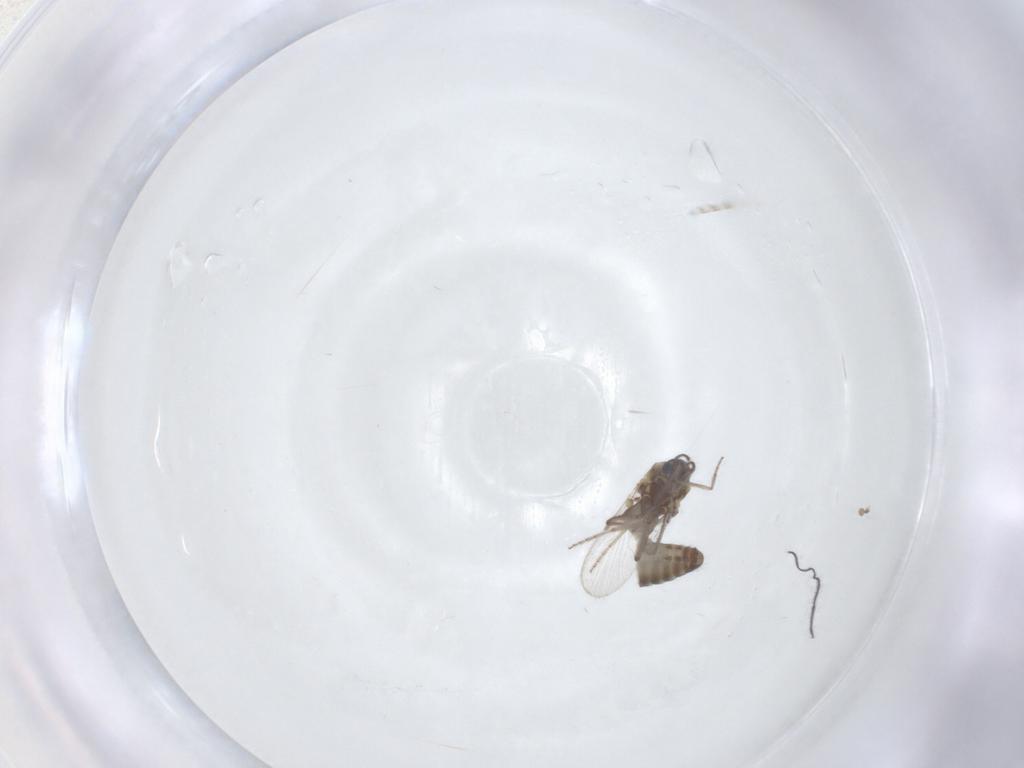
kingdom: Animalia
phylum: Arthropoda
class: Insecta
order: Diptera
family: Ceratopogonidae
